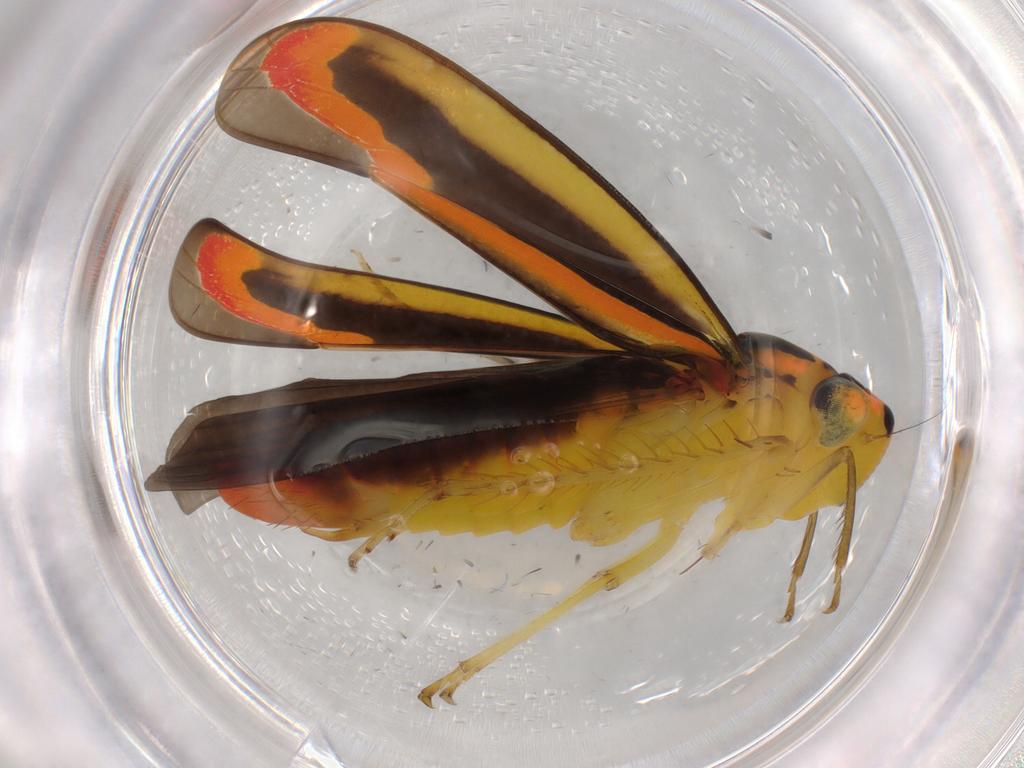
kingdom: Animalia
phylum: Arthropoda
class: Insecta
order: Hemiptera
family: Cicadellidae
